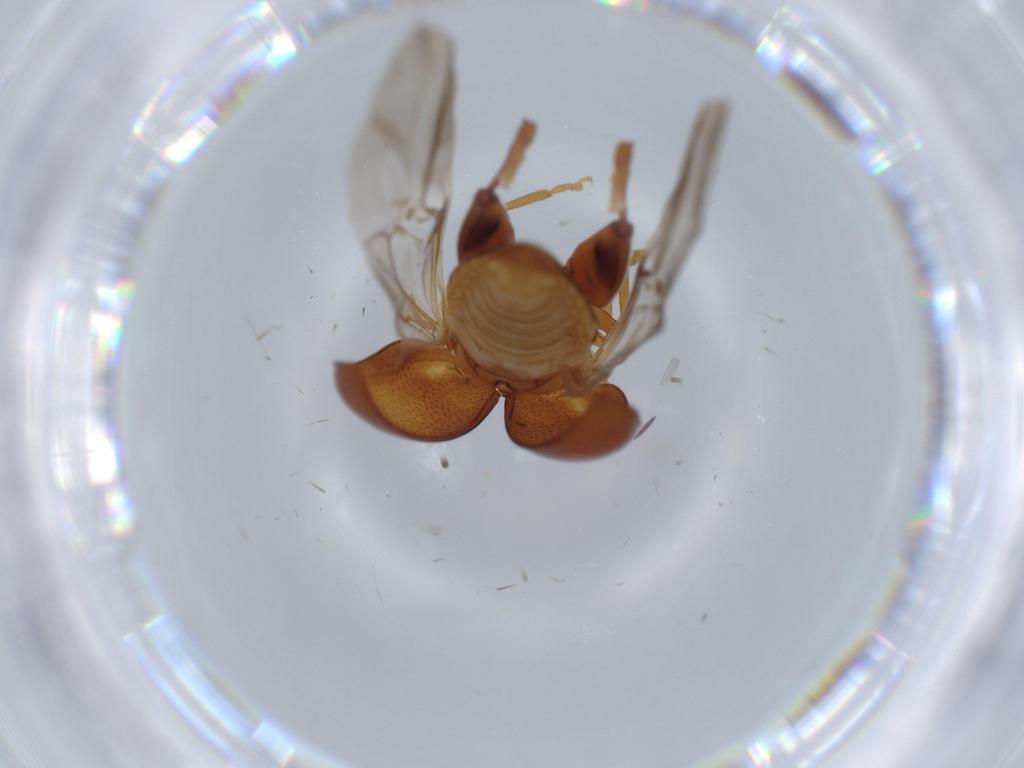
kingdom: Animalia
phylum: Arthropoda
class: Insecta
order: Coleoptera
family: Chrysomelidae
